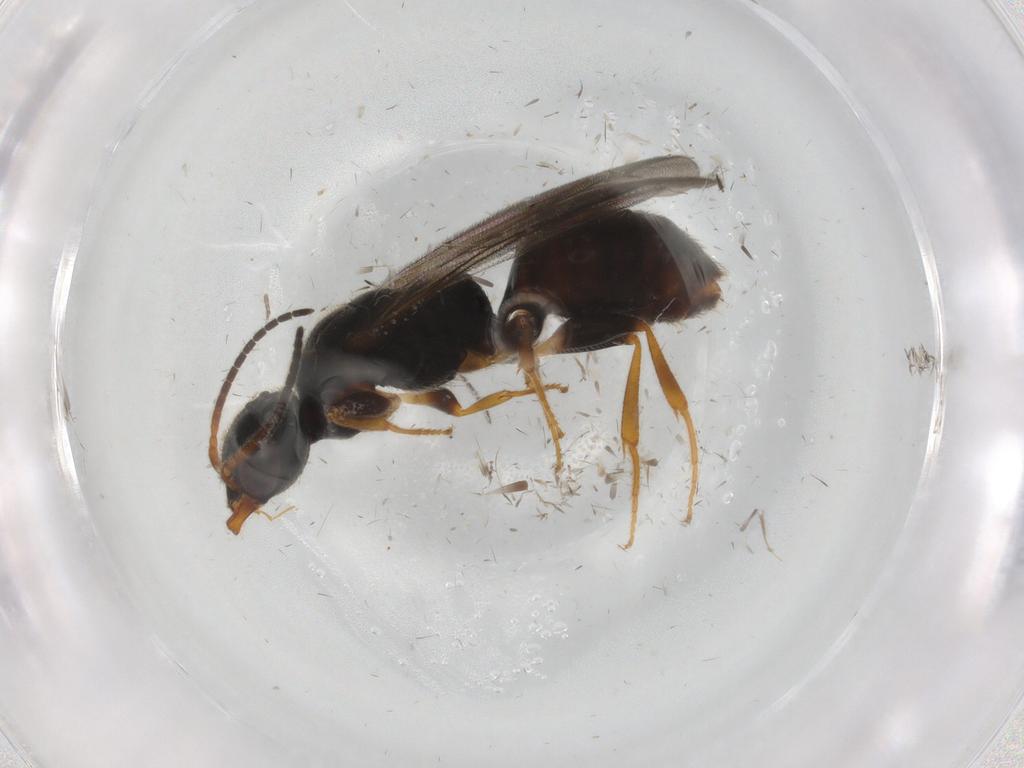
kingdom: Animalia
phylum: Arthropoda
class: Insecta
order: Hymenoptera
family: Bethylidae
